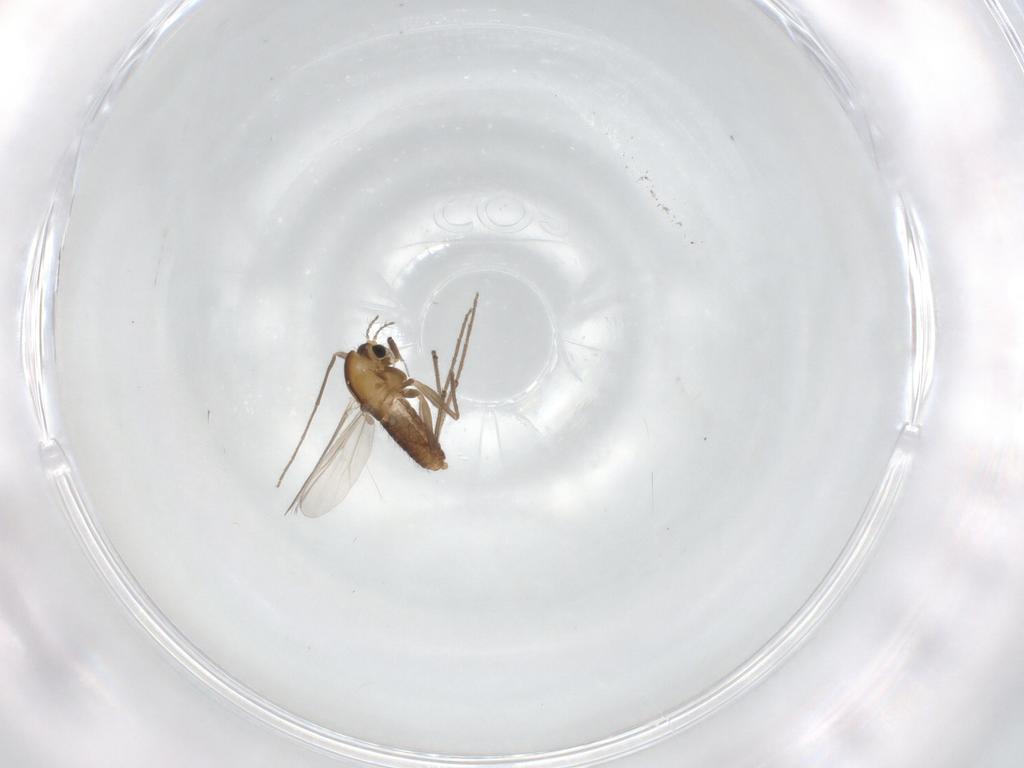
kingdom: Animalia
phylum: Arthropoda
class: Insecta
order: Diptera
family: Chironomidae
